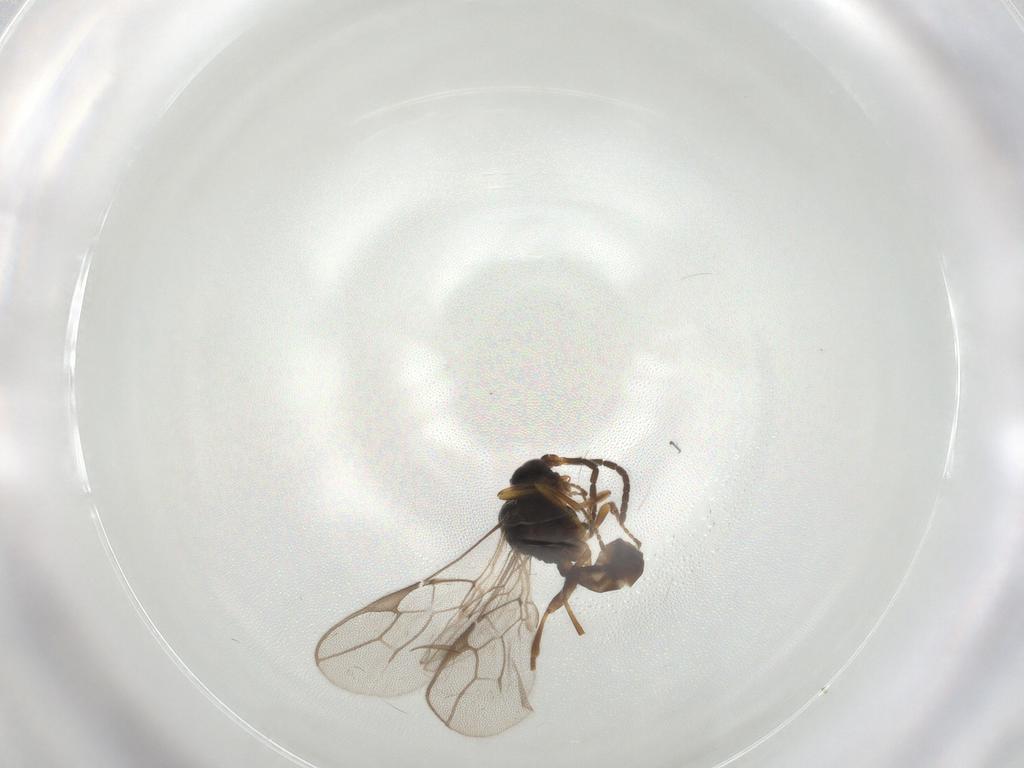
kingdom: Animalia
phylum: Arthropoda
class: Insecta
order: Hymenoptera
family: Braconidae
